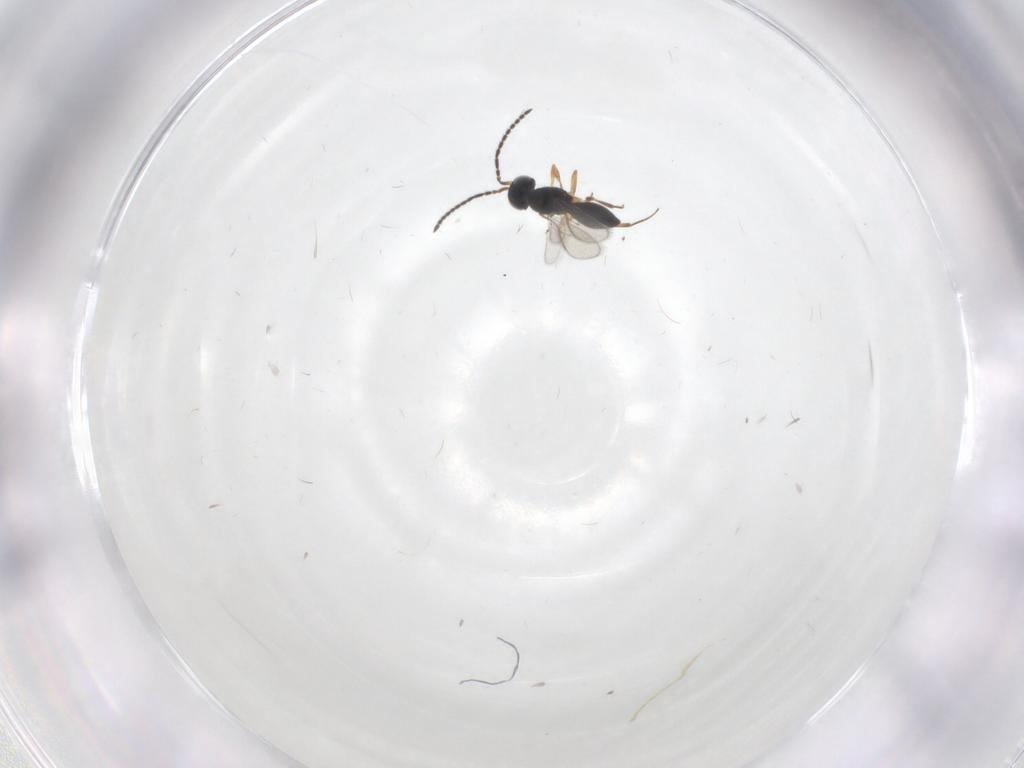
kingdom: Animalia
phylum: Arthropoda
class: Insecta
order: Hymenoptera
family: Scelionidae
